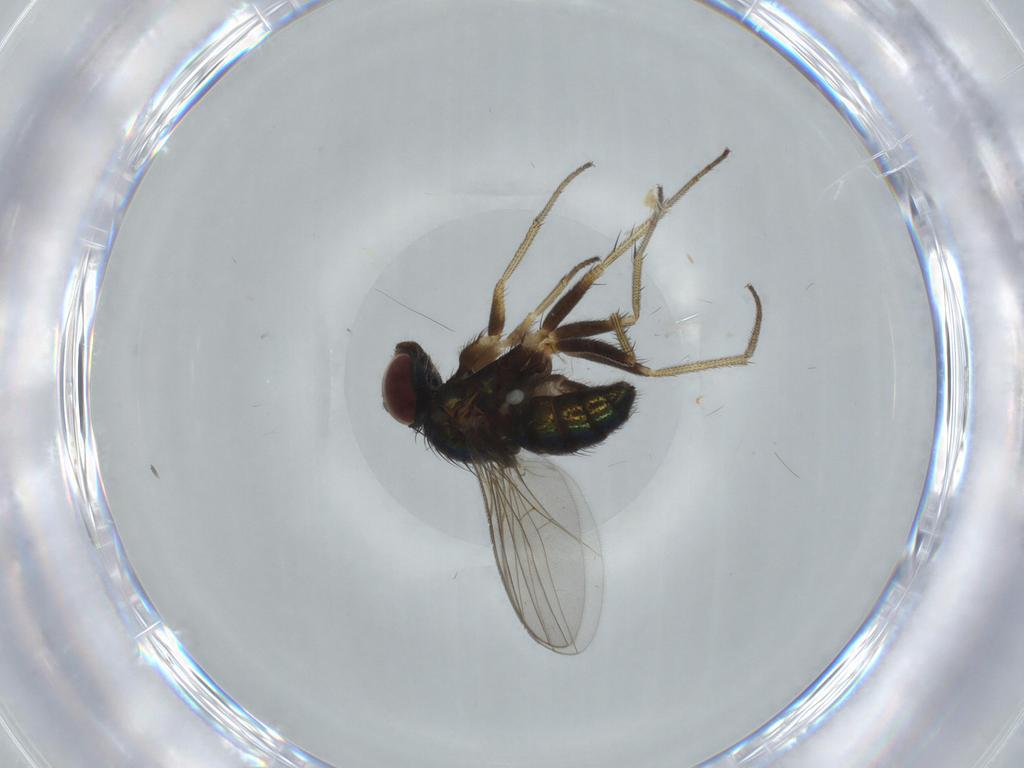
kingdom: Animalia
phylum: Arthropoda
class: Insecta
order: Diptera
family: Dolichopodidae
